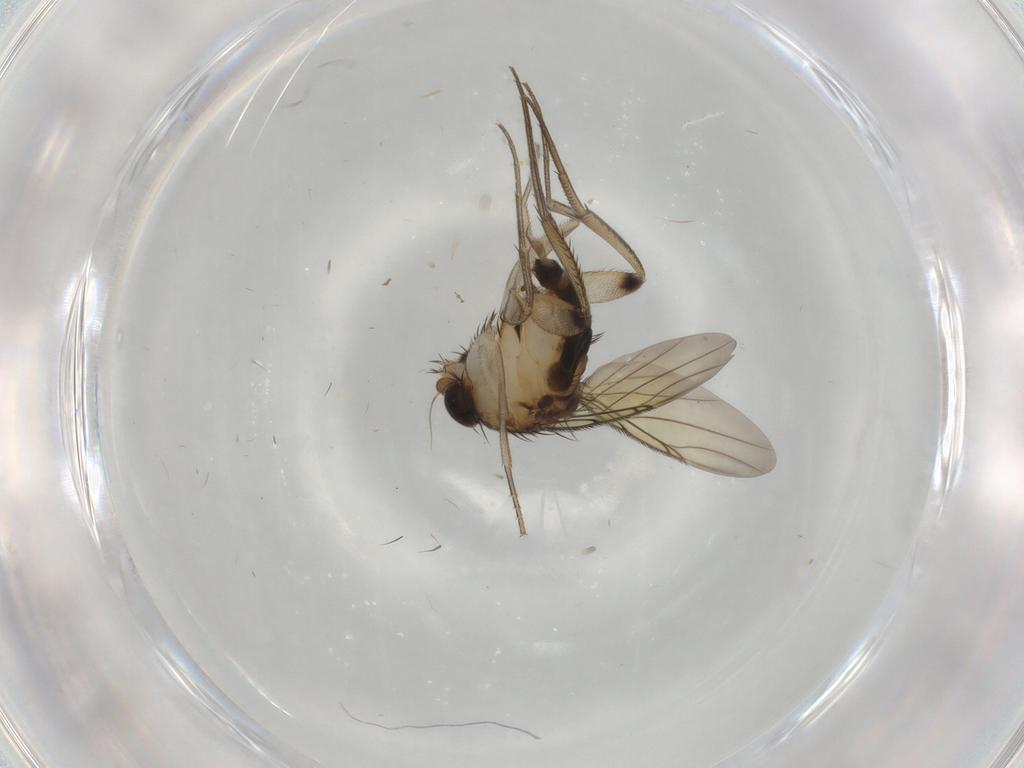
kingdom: Animalia
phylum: Arthropoda
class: Insecta
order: Diptera
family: Phoridae
